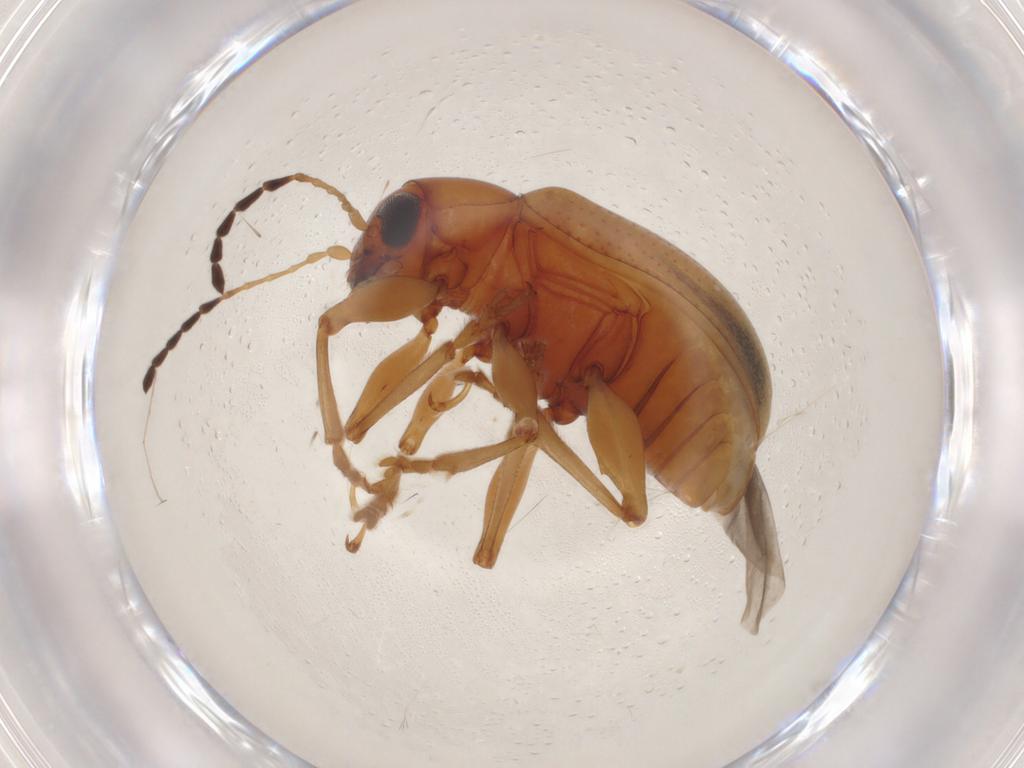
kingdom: Animalia
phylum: Arthropoda
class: Insecta
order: Coleoptera
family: Chrysomelidae
